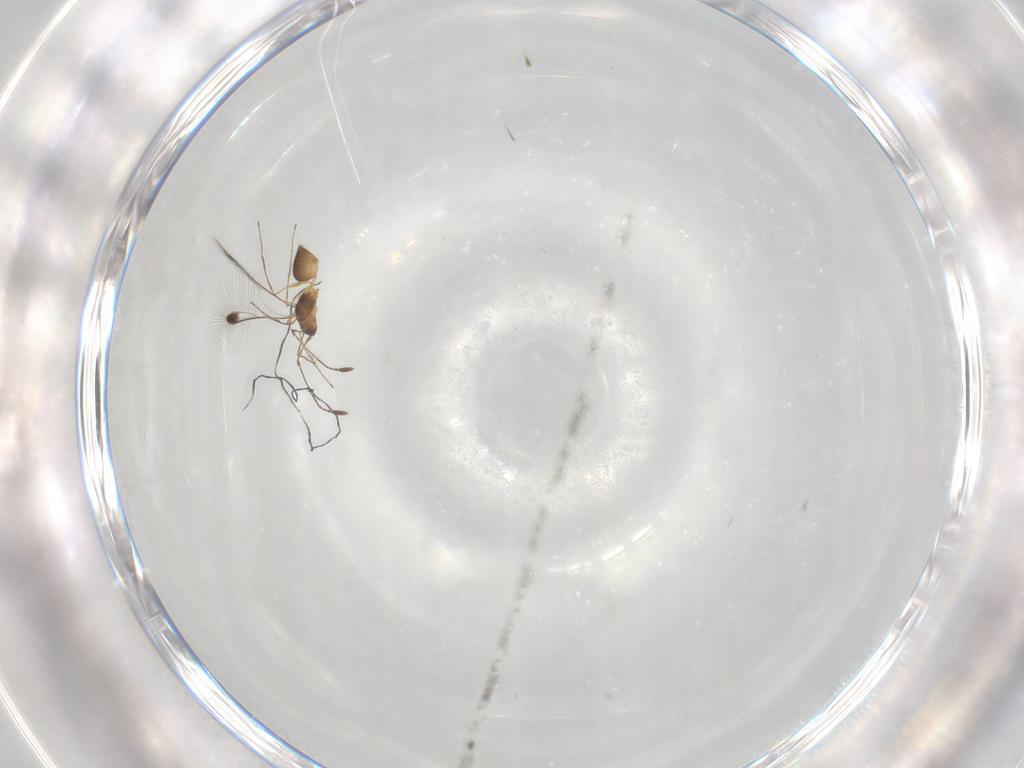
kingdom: Animalia
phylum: Arthropoda
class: Insecta
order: Hymenoptera
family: Mymaridae
